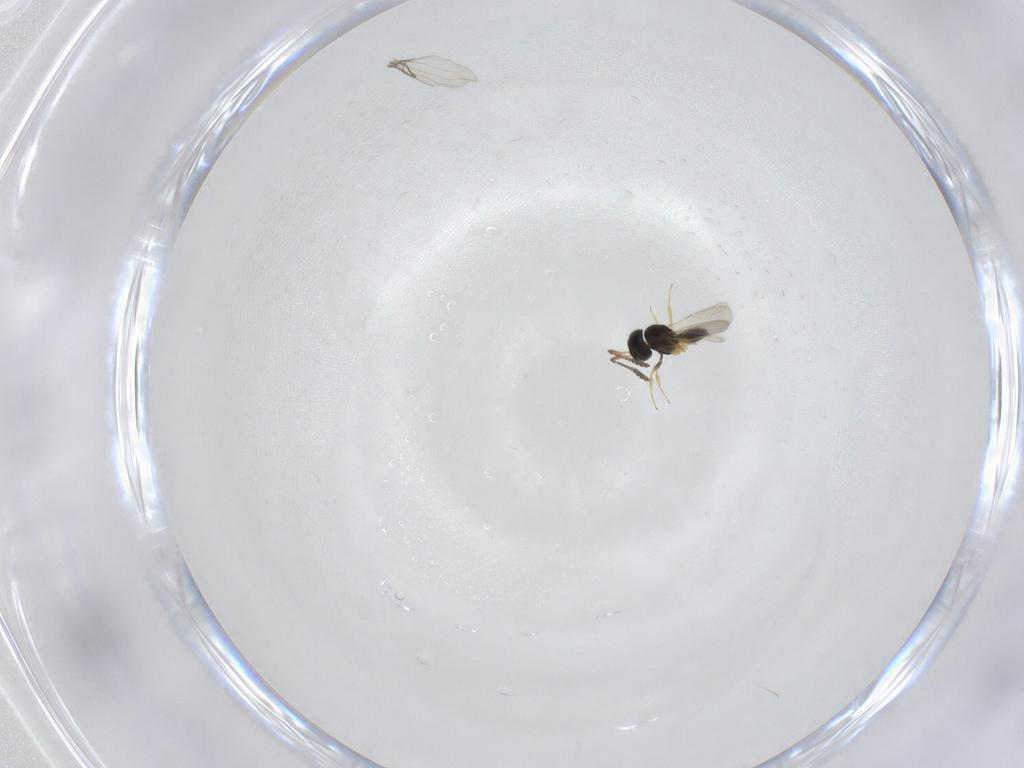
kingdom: Animalia
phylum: Arthropoda
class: Insecta
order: Hymenoptera
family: Scelionidae
